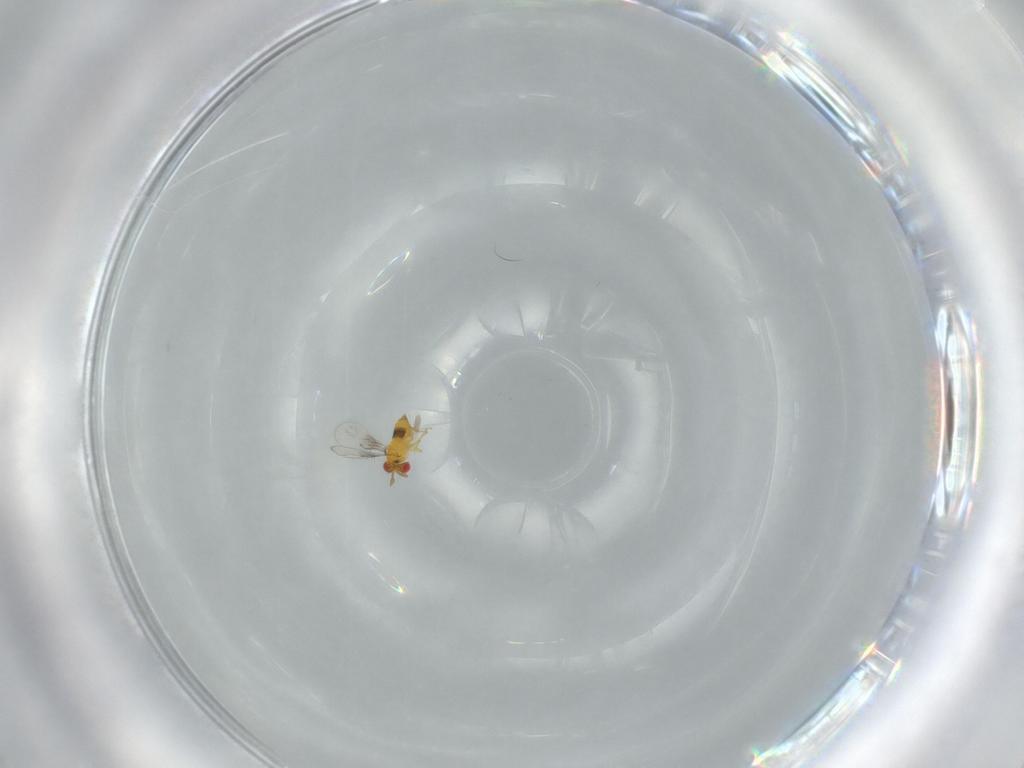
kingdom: Animalia
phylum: Arthropoda
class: Insecta
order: Hymenoptera
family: Trichogrammatidae
